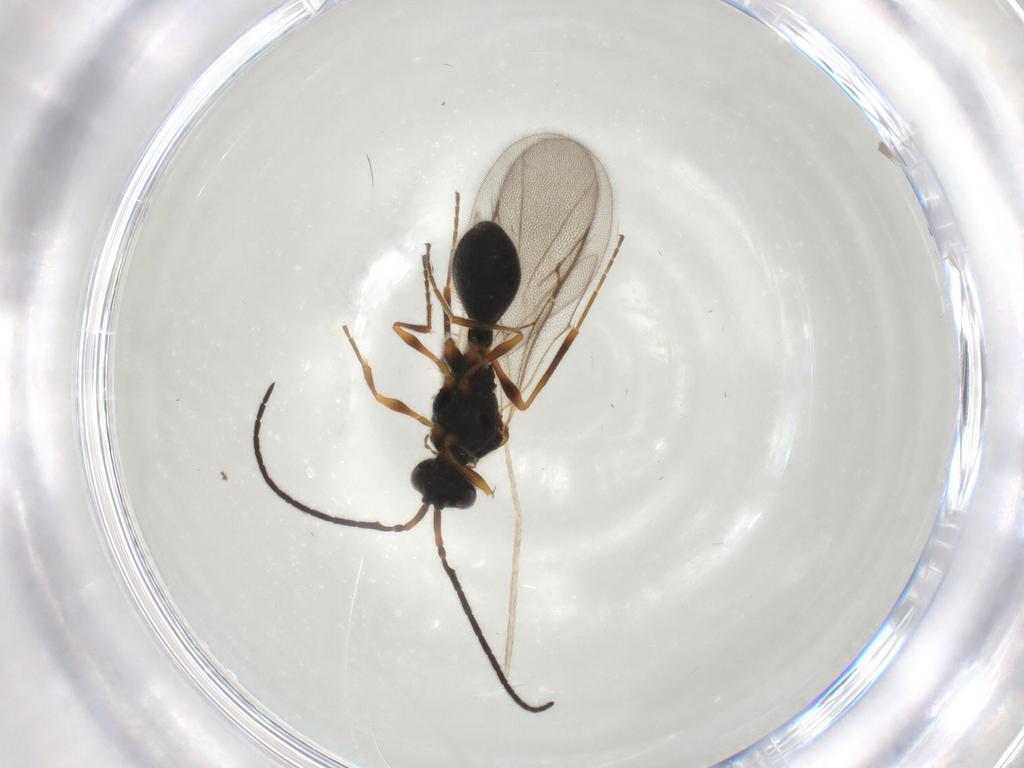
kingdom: Animalia
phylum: Arthropoda
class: Insecta
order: Hymenoptera
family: Diapriidae
